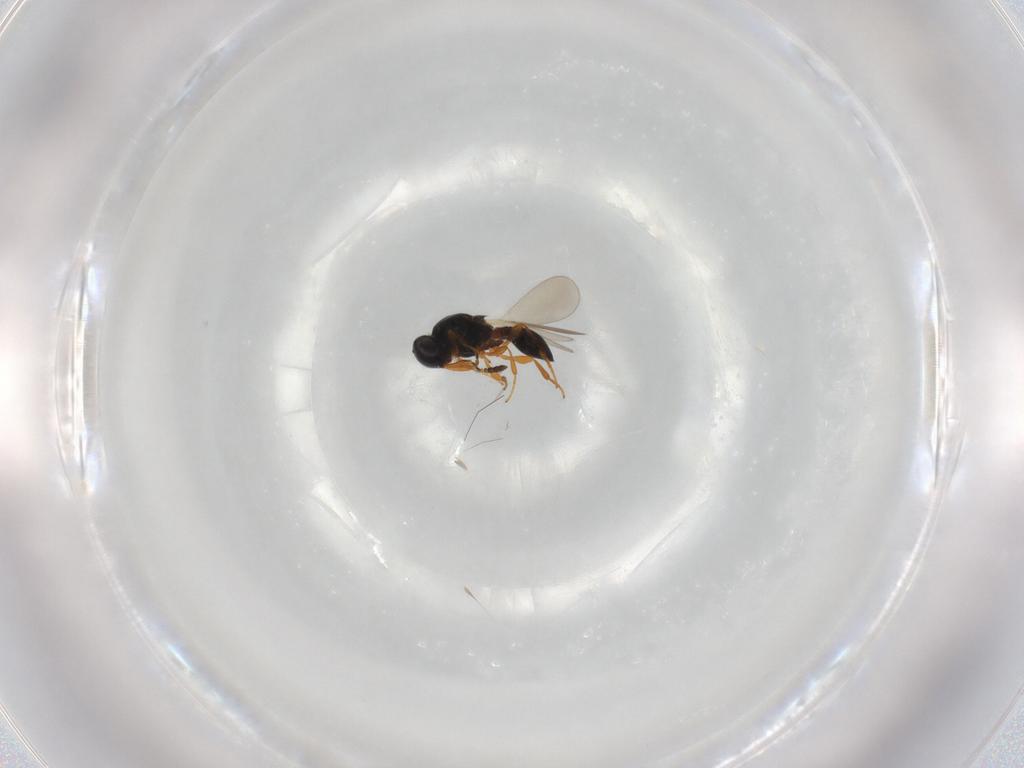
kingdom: Animalia
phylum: Arthropoda
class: Insecta
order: Hymenoptera
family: Platygastridae
